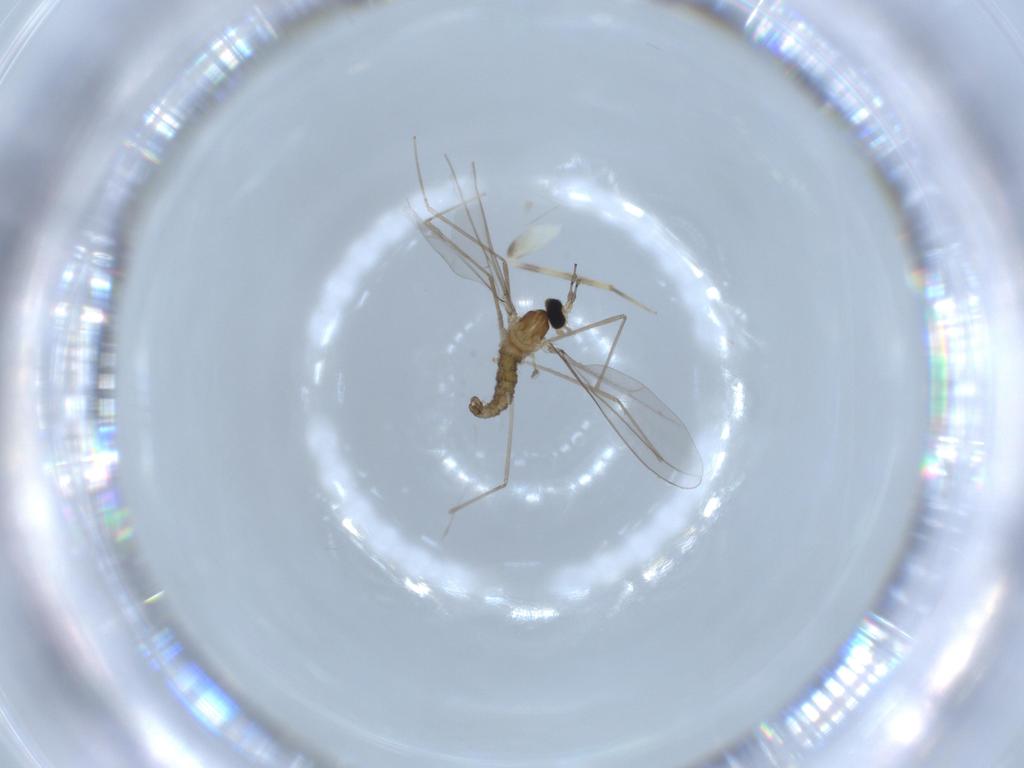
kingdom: Animalia
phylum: Arthropoda
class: Insecta
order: Diptera
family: Cecidomyiidae
